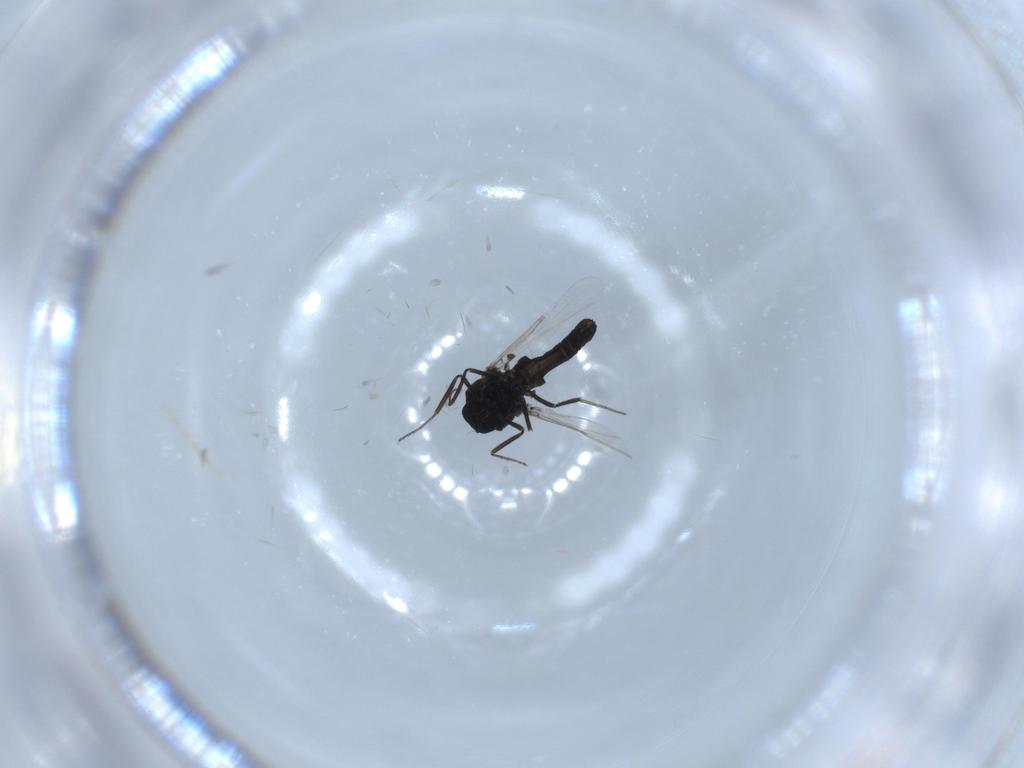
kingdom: Animalia
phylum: Arthropoda
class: Insecta
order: Diptera
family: Ceratopogonidae
